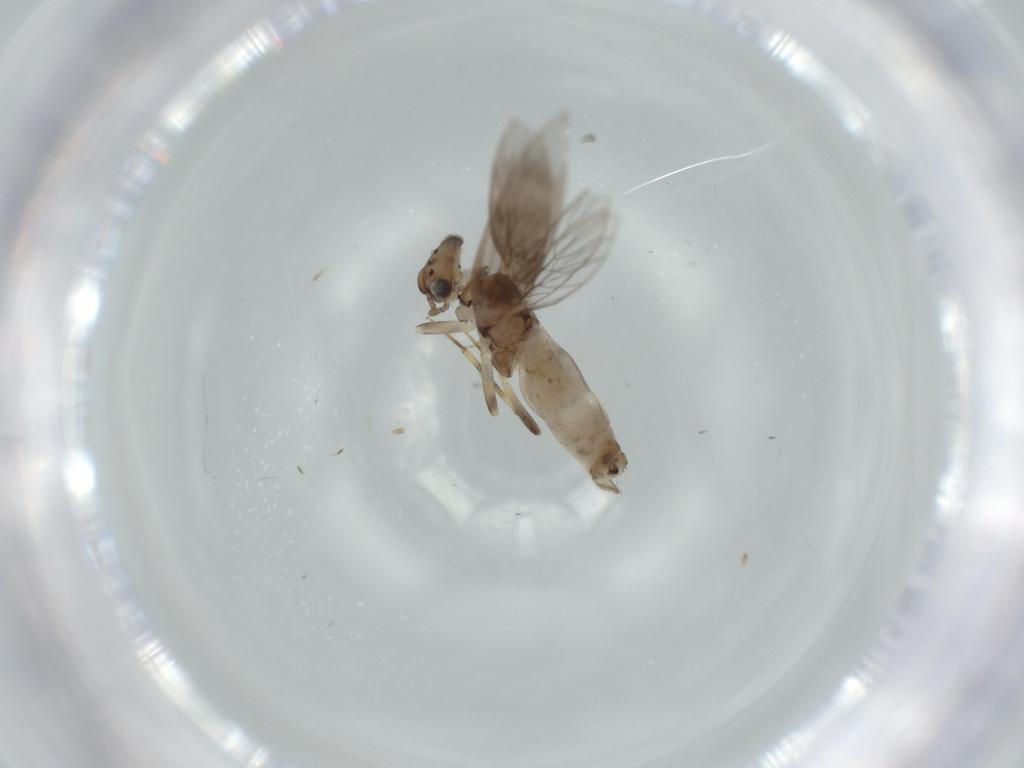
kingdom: Animalia
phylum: Arthropoda
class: Insecta
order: Psocodea
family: Lepidopsocidae
